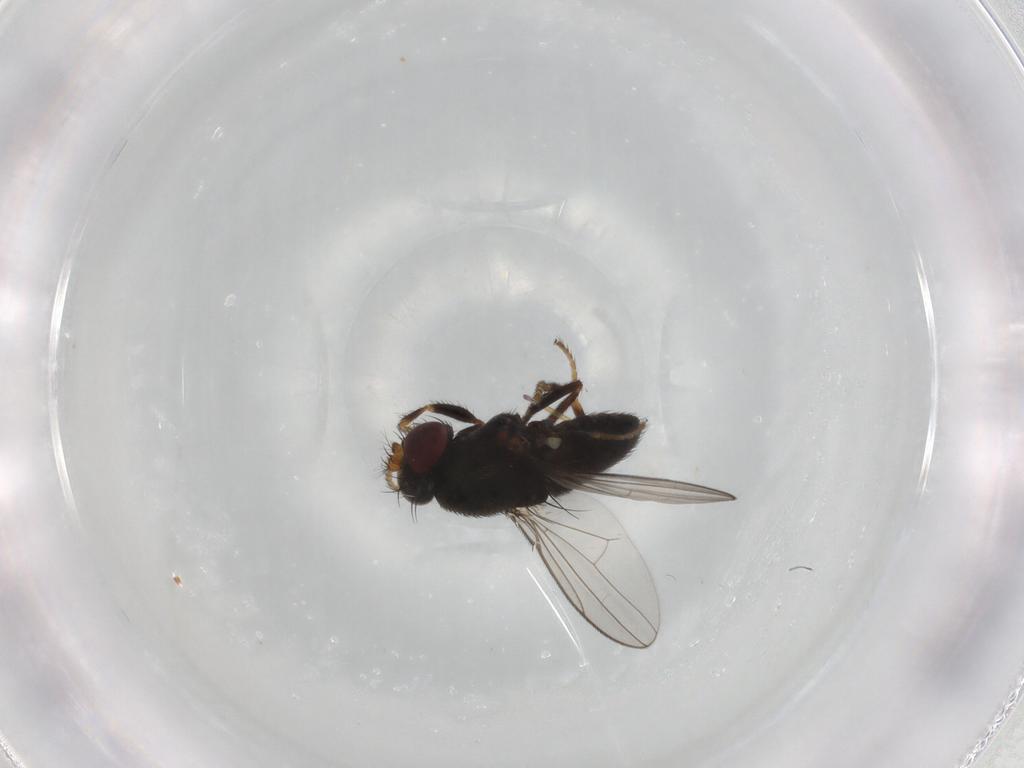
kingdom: Animalia
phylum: Arthropoda
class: Insecta
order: Diptera
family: Ephydridae
